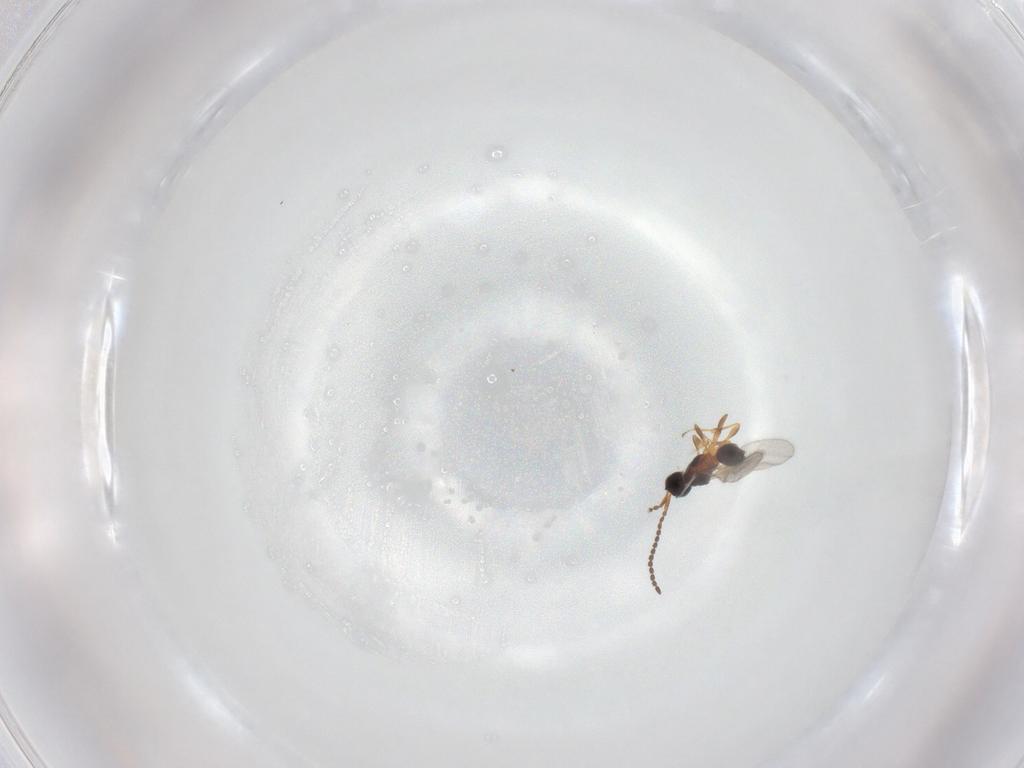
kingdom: Animalia
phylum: Arthropoda
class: Insecta
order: Hymenoptera
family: Diapriidae
